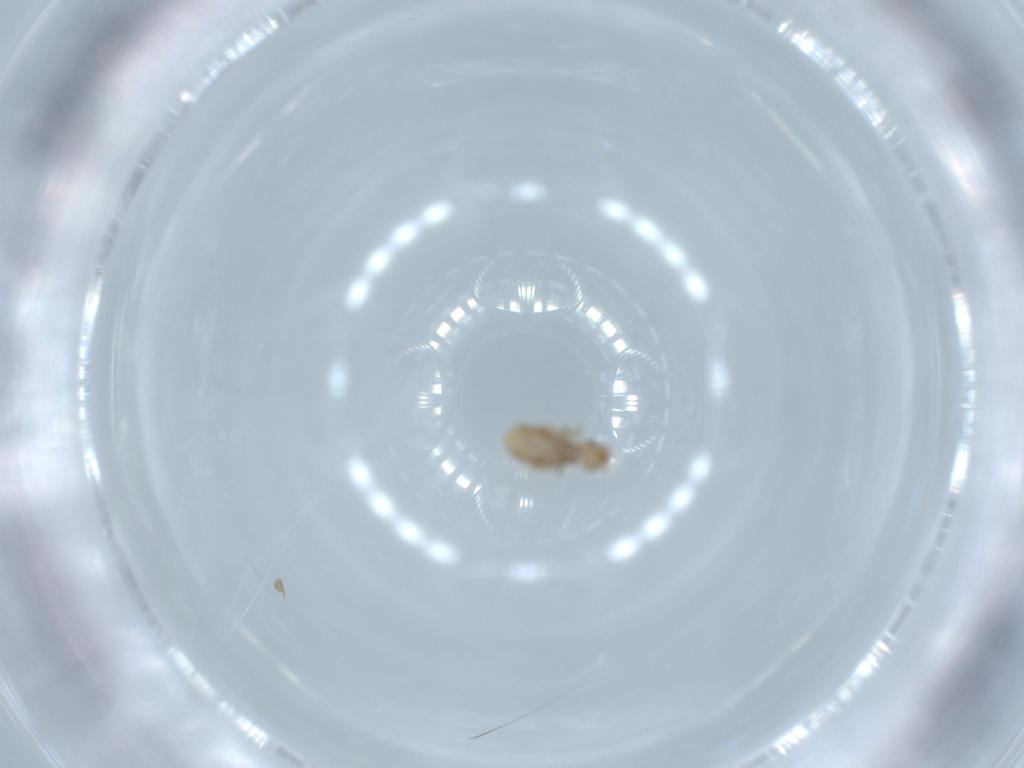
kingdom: Animalia
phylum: Arthropoda
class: Insecta
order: Psocodea
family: Liposcelididae
